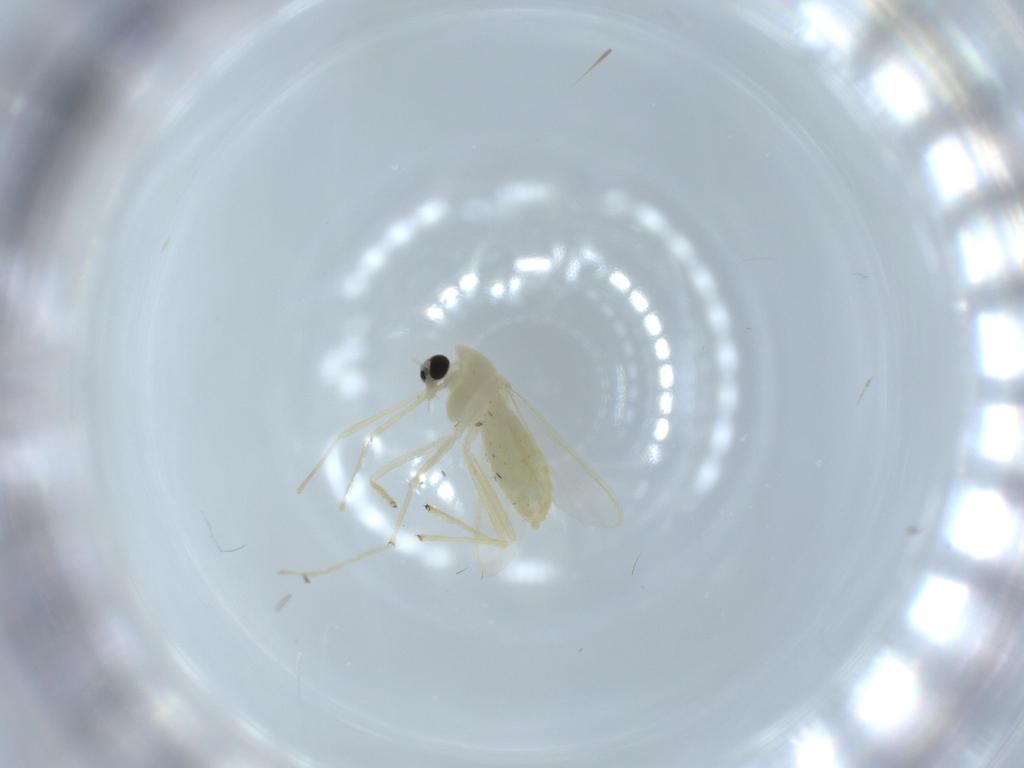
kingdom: Animalia
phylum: Arthropoda
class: Insecta
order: Diptera
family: Chironomidae
